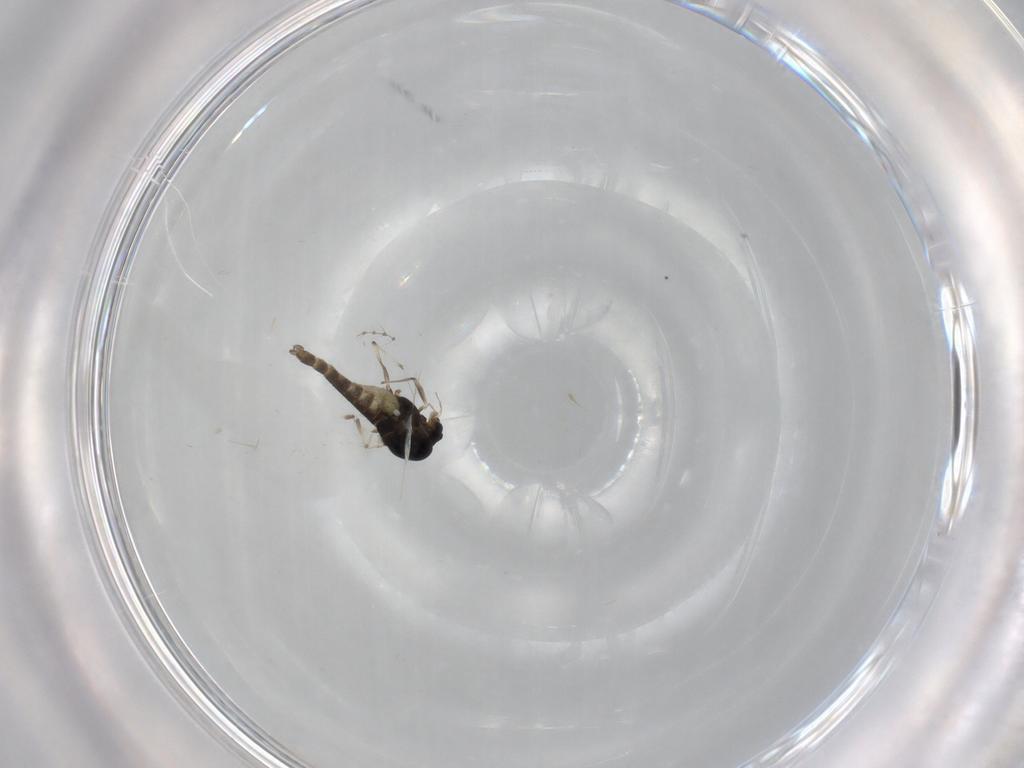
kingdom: Animalia
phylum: Arthropoda
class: Insecta
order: Diptera
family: Chironomidae
